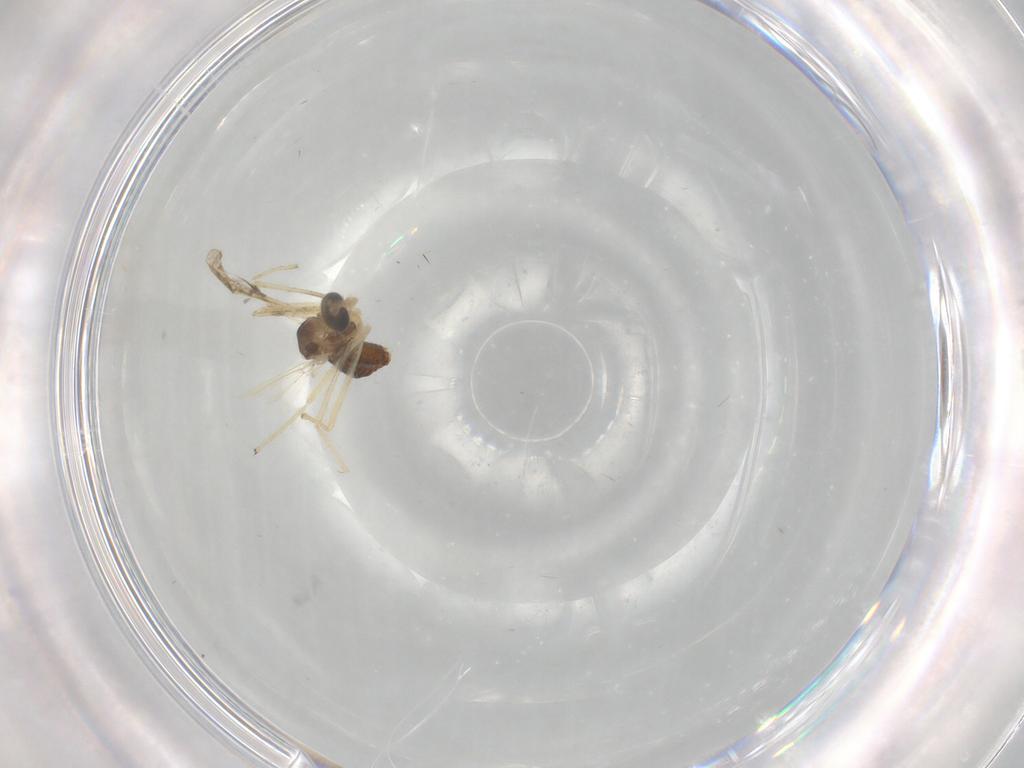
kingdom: Animalia
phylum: Arthropoda
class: Insecta
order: Diptera
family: Chironomidae
